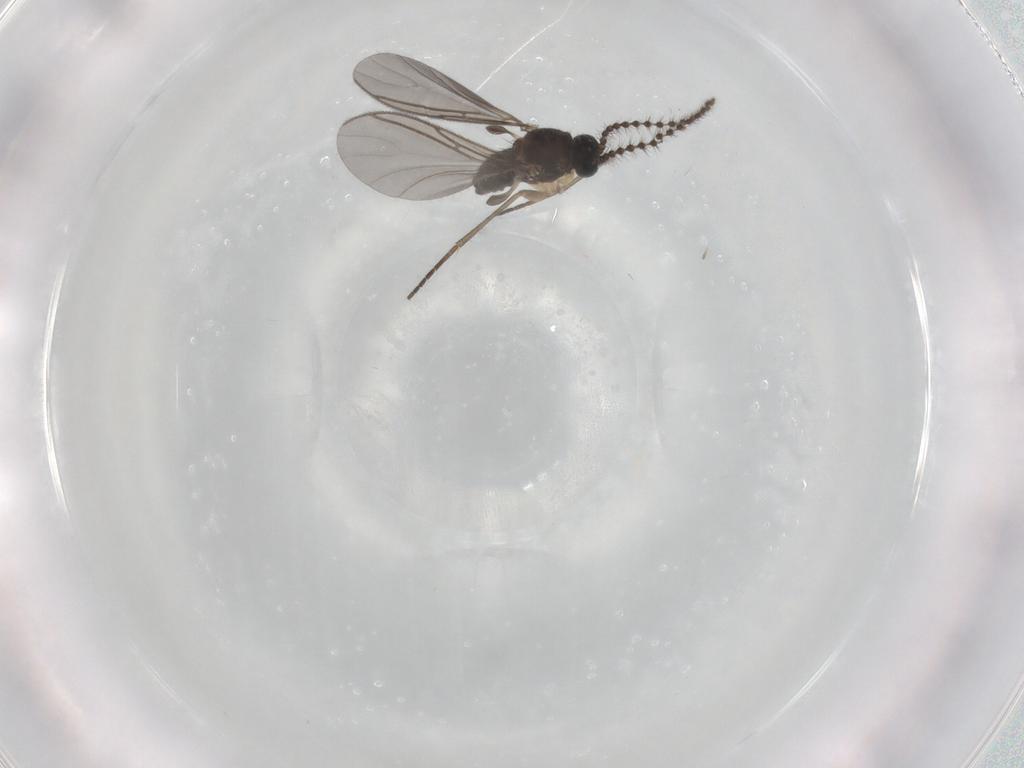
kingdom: Animalia
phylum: Arthropoda
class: Insecta
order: Diptera
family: Sciaridae
